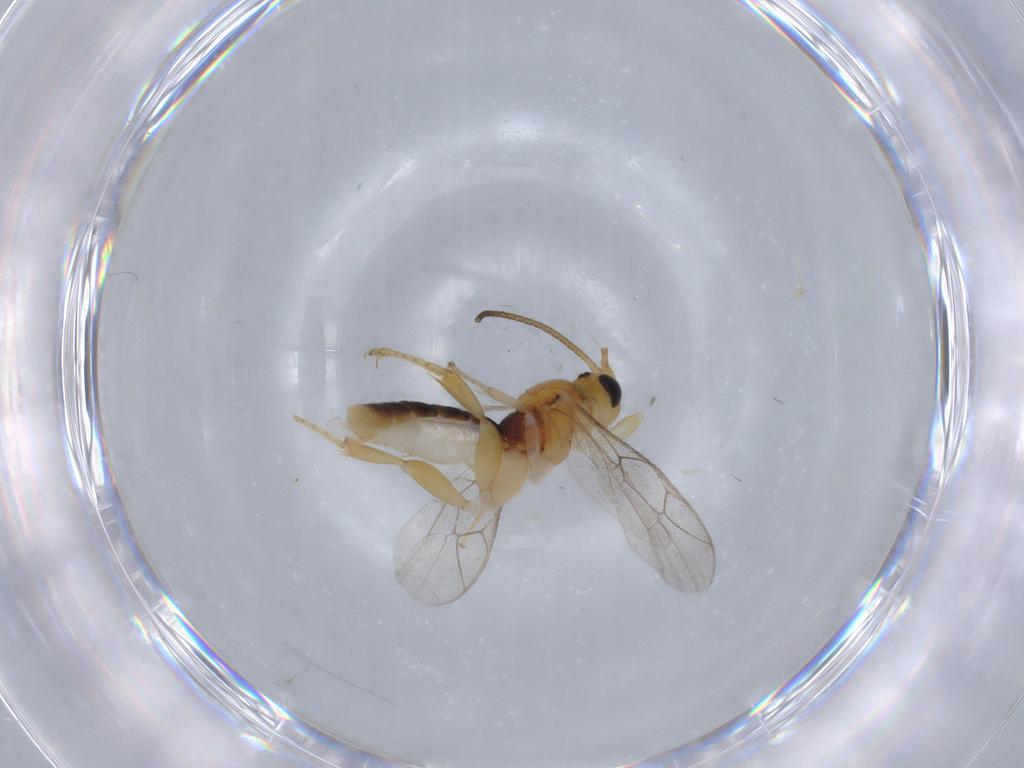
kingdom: Animalia
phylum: Arthropoda
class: Insecta
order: Hymenoptera
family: Ichneumonidae
